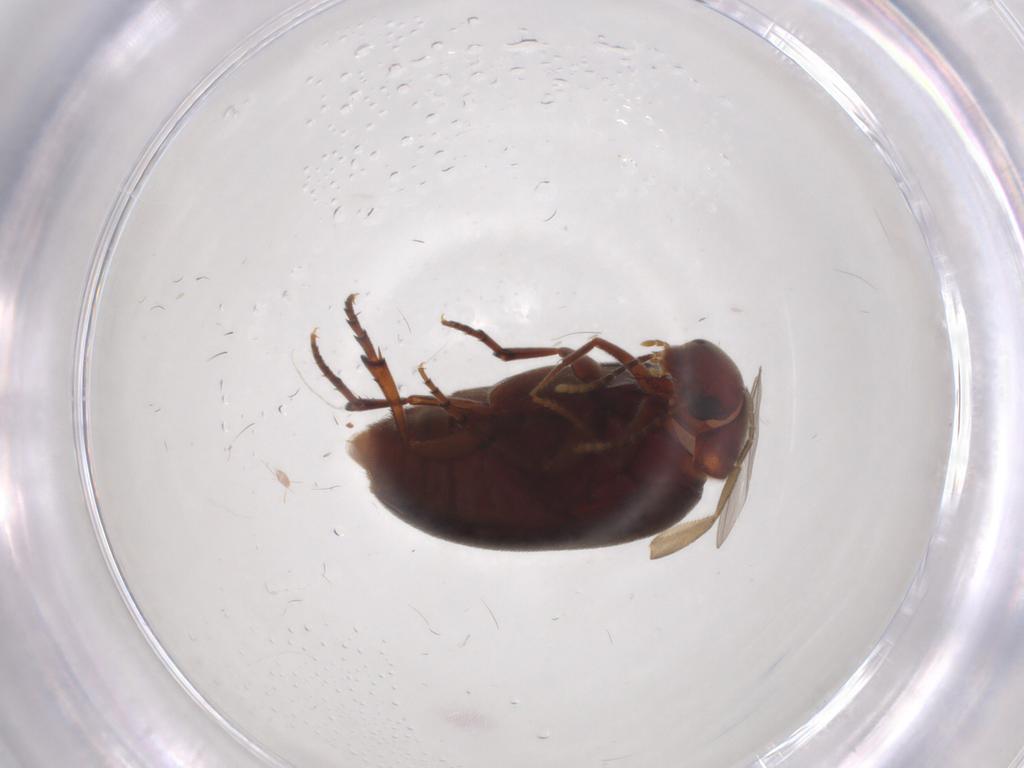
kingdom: Animalia
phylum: Arthropoda
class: Insecta
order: Coleoptera
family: Eucinetidae
